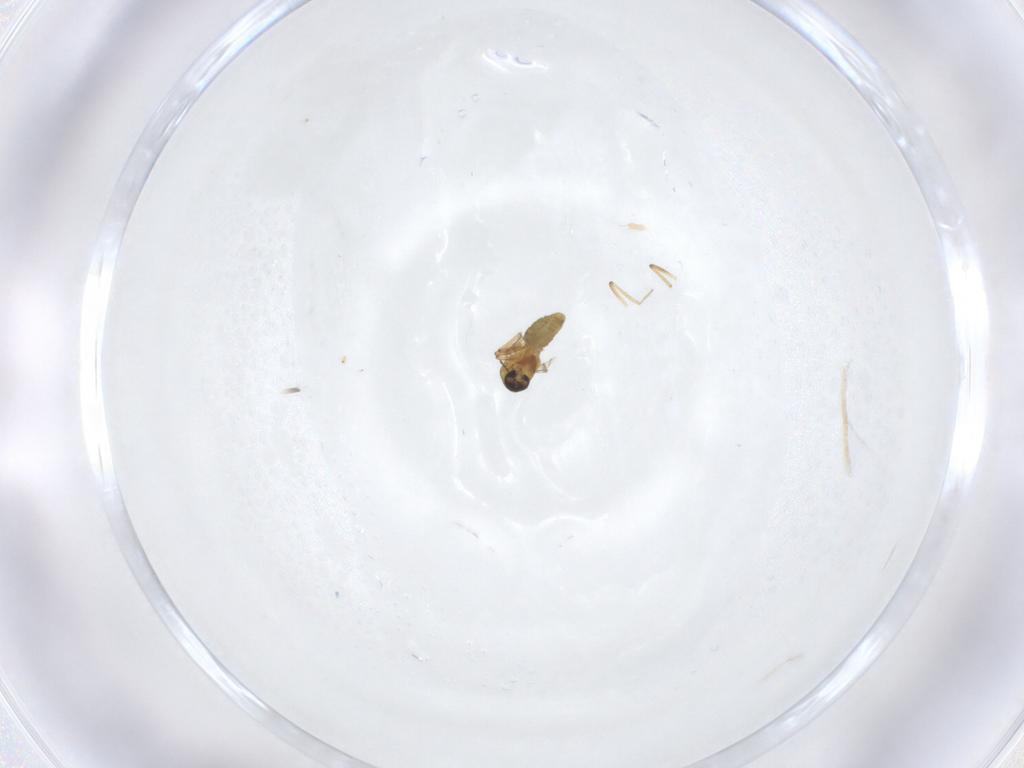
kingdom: Animalia
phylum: Arthropoda
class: Insecta
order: Diptera
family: Ceratopogonidae
